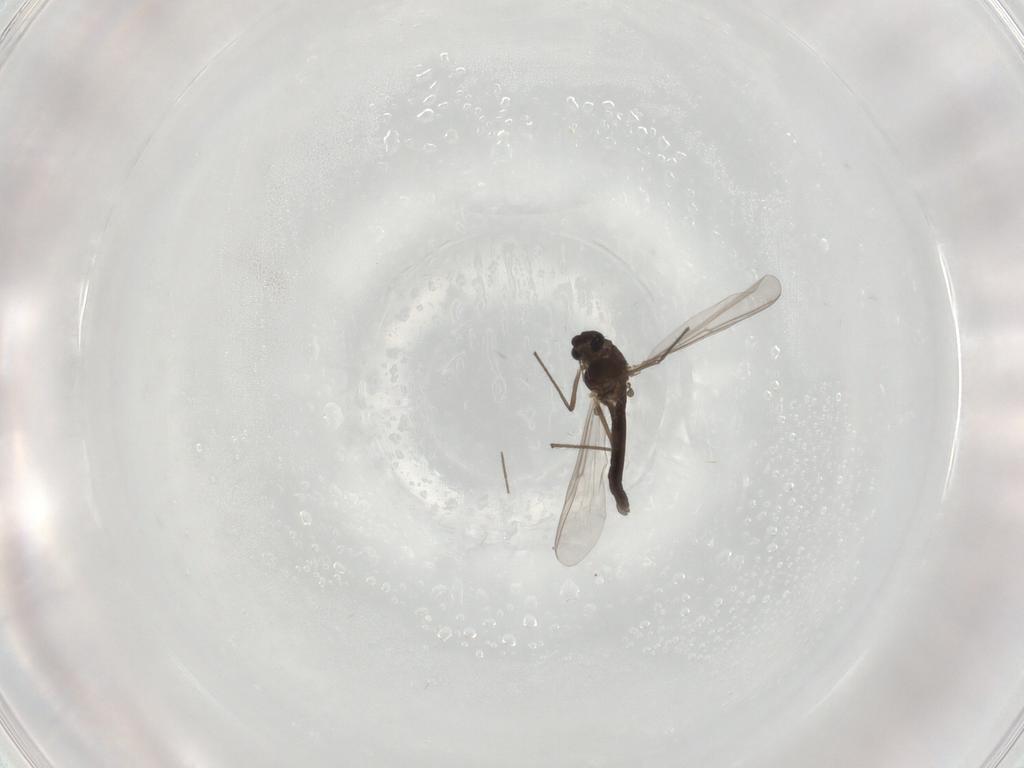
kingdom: Animalia
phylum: Arthropoda
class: Insecta
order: Diptera
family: Chironomidae
